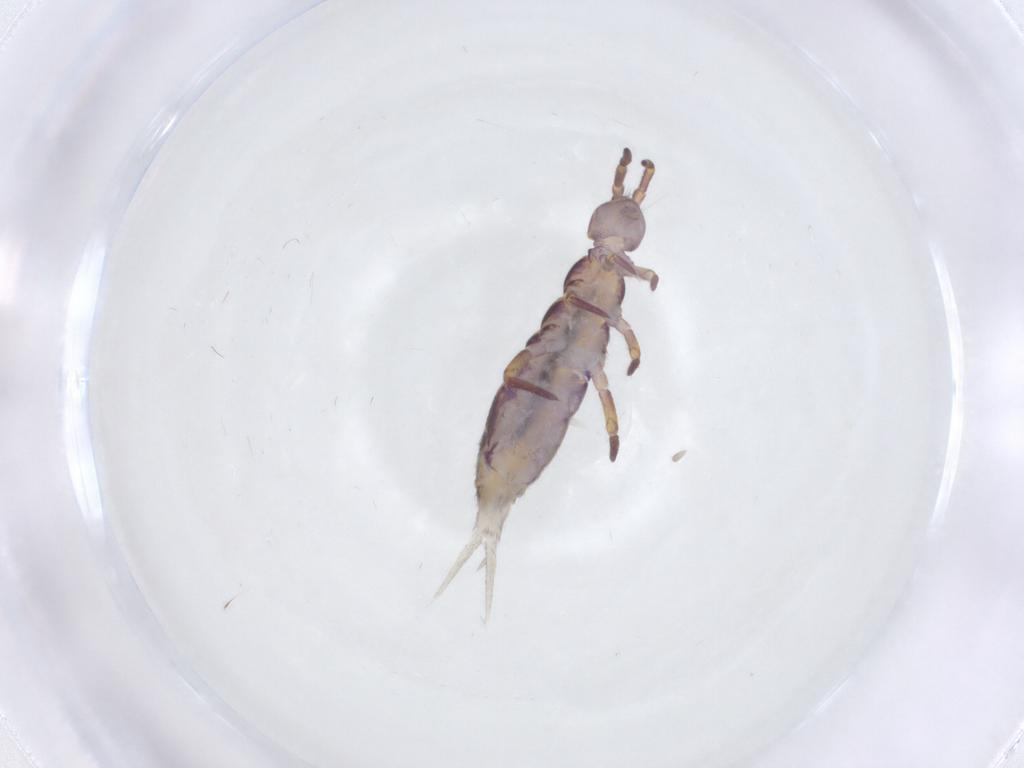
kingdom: Animalia
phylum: Arthropoda
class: Collembola
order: Entomobryomorpha
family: Isotomidae
